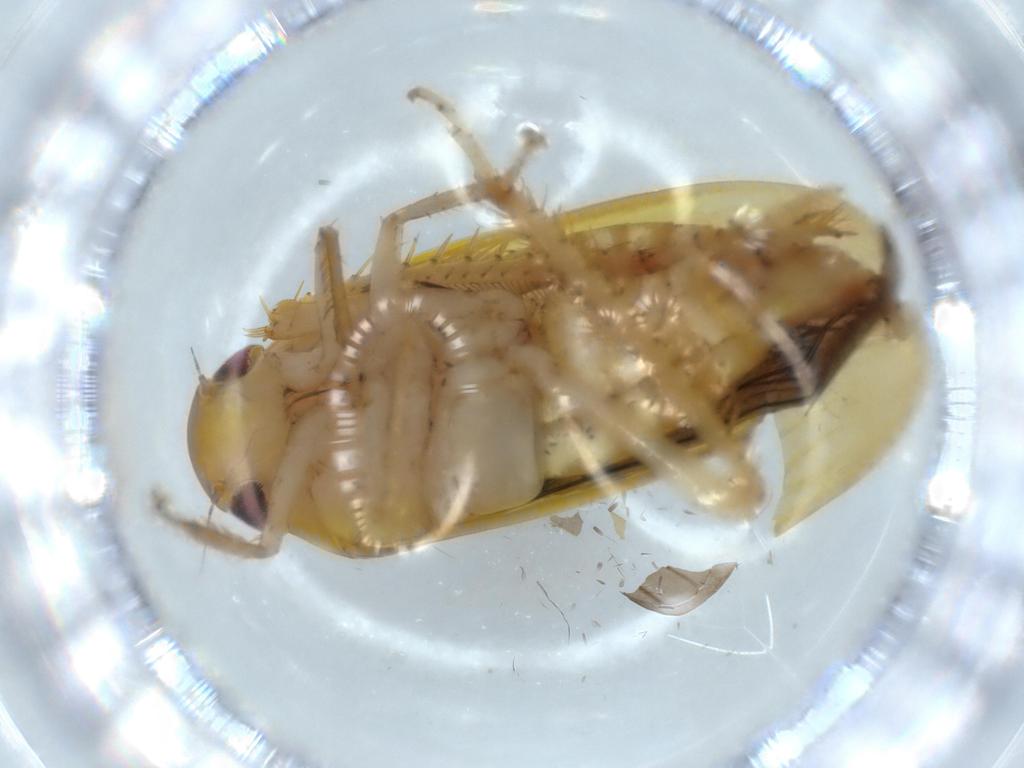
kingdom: Animalia
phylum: Arthropoda
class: Insecta
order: Hemiptera
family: Cicadellidae
